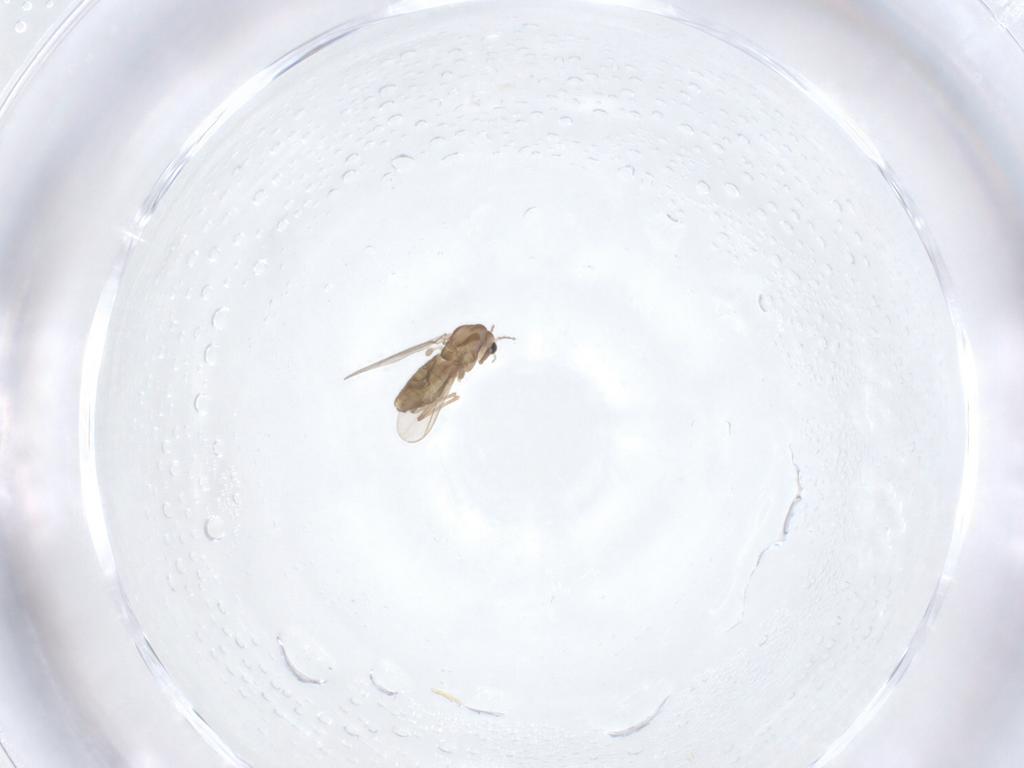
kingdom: Animalia
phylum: Arthropoda
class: Insecta
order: Diptera
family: Chironomidae
